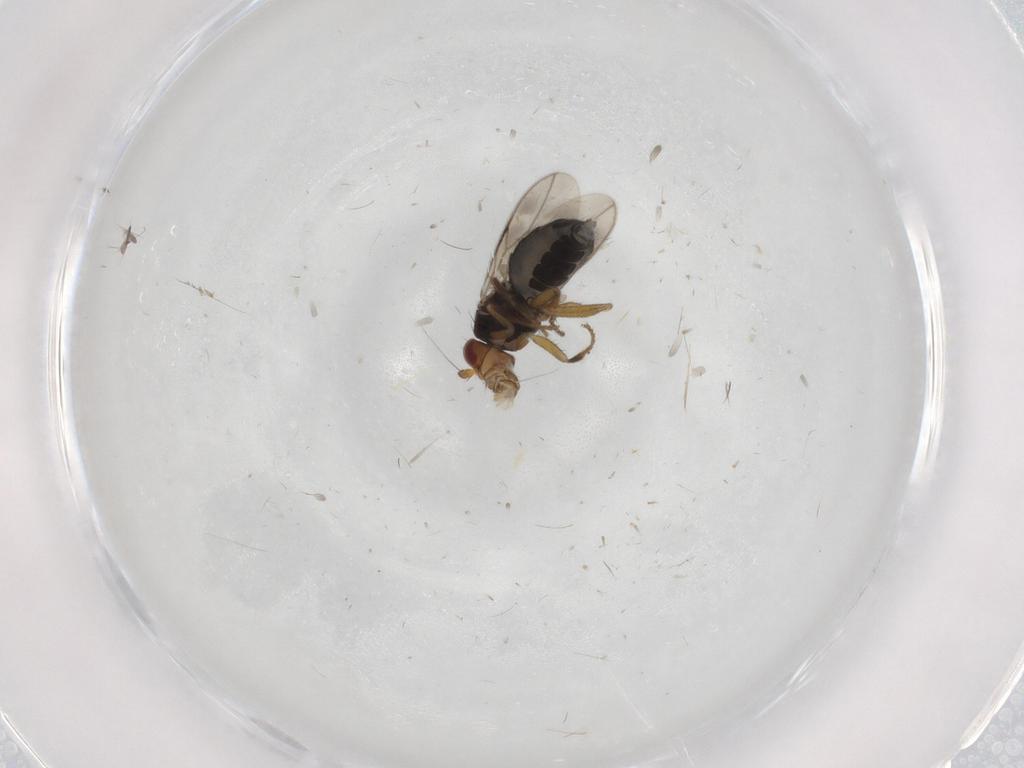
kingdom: Animalia
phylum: Arthropoda
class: Insecta
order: Diptera
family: Sphaeroceridae
